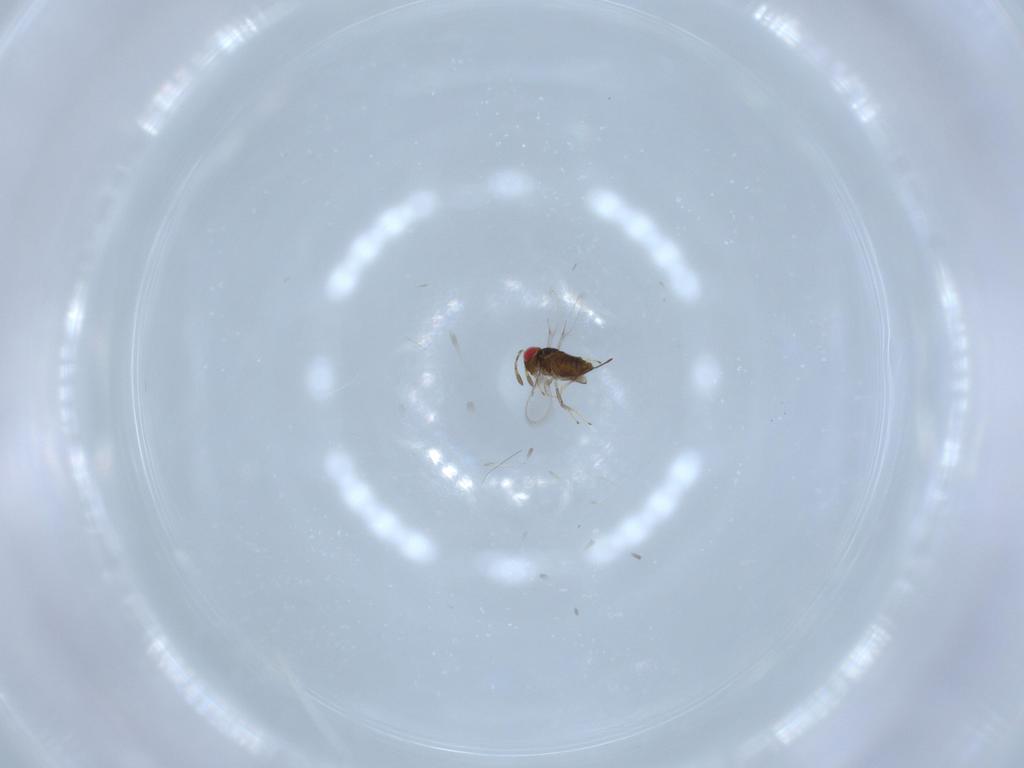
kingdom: Animalia
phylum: Arthropoda
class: Insecta
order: Hymenoptera
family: Azotidae
